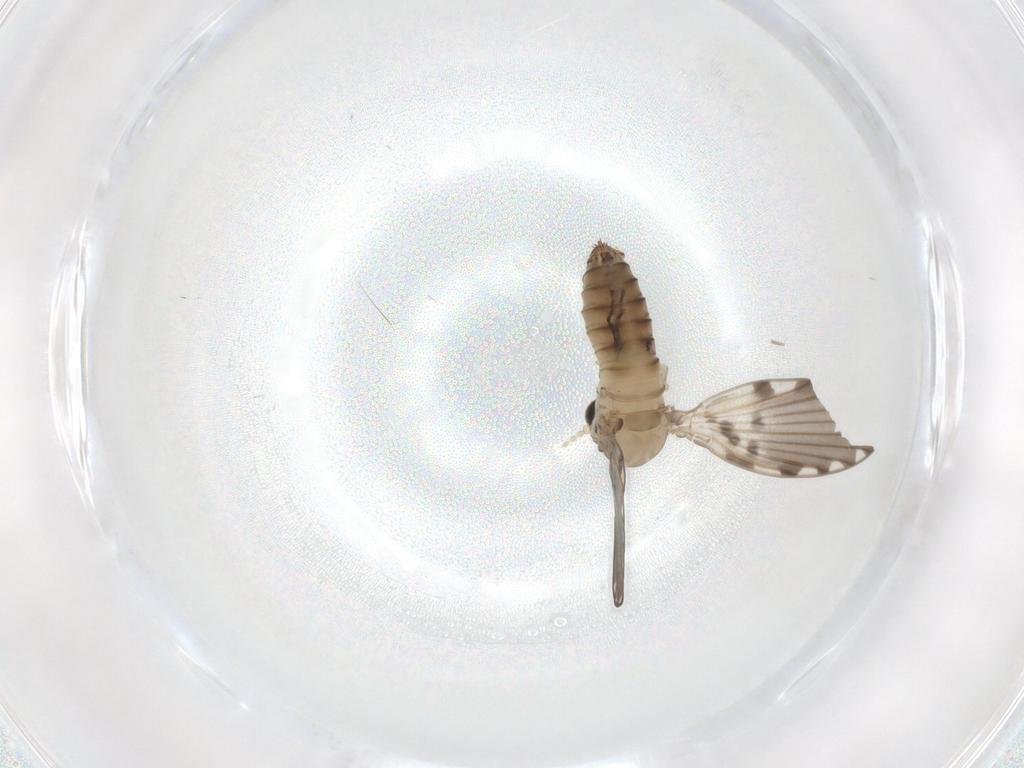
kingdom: Animalia
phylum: Arthropoda
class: Insecta
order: Diptera
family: Psychodidae
